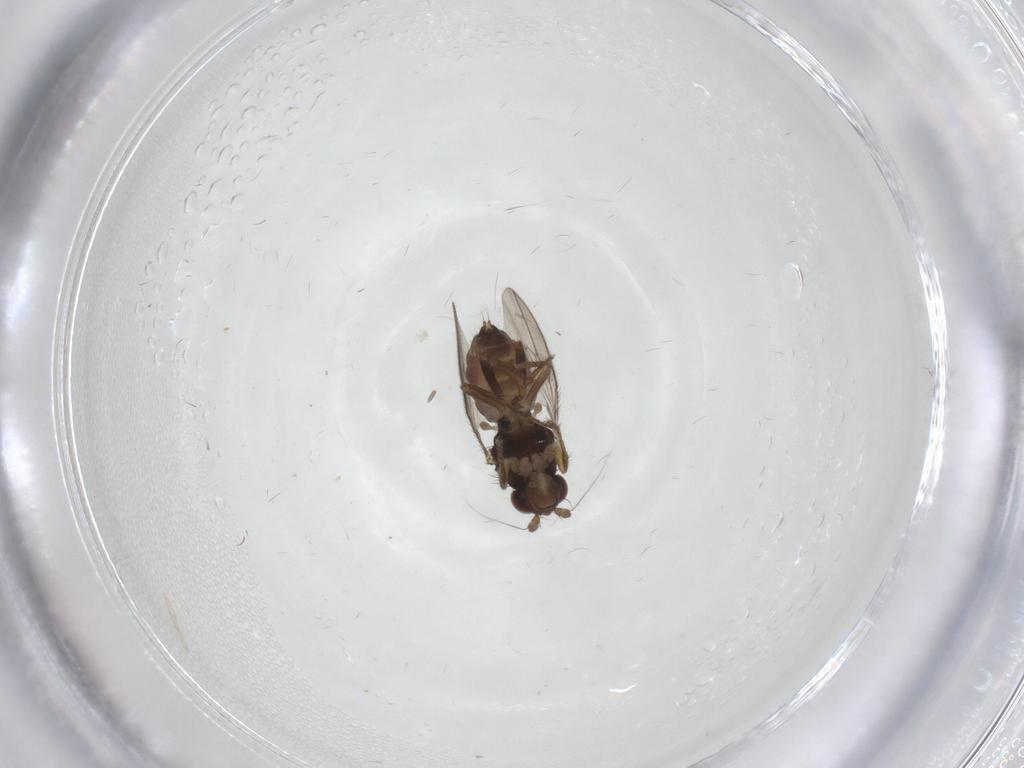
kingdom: Animalia
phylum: Arthropoda
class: Insecta
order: Diptera
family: Sphaeroceridae
